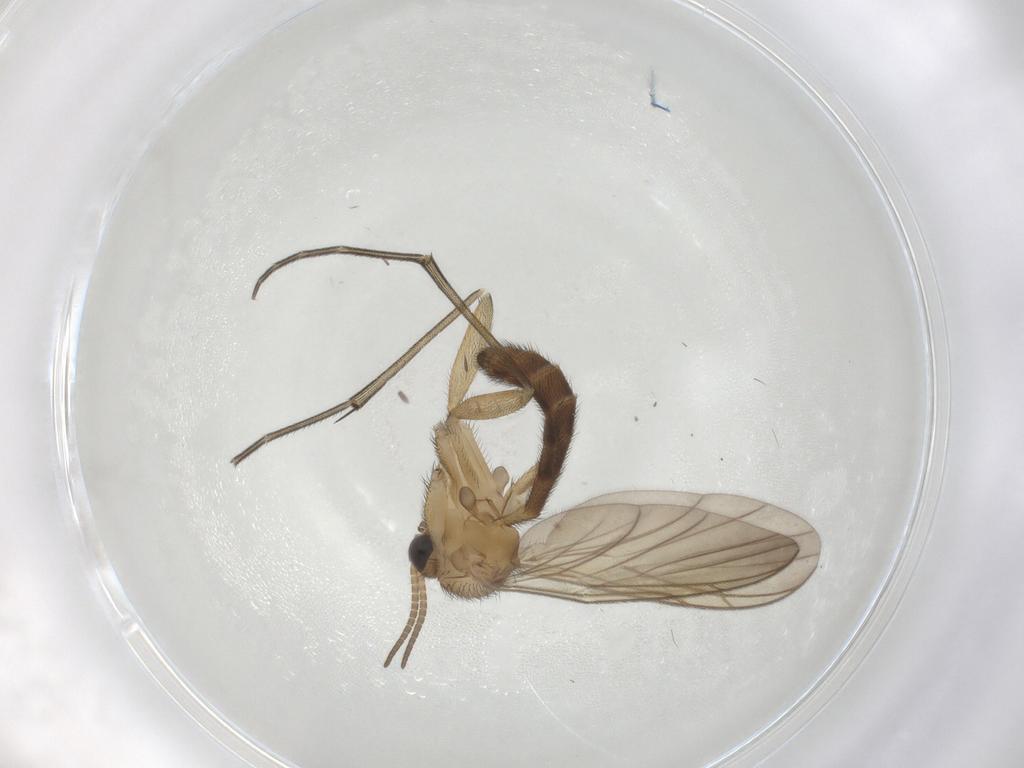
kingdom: Animalia
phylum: Arthropoda
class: Insecta
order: Diptera
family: Keroplatidae
